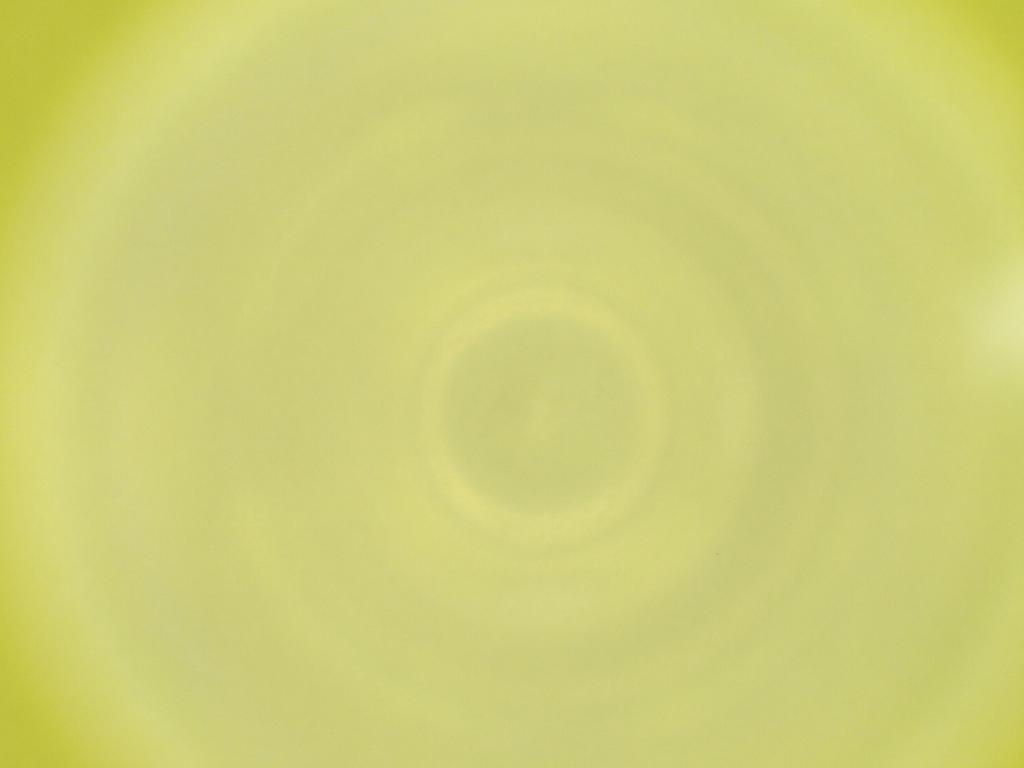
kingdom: Animalia
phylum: Arthropoda
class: Insecta
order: Diptera
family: Cecidomyiidae
